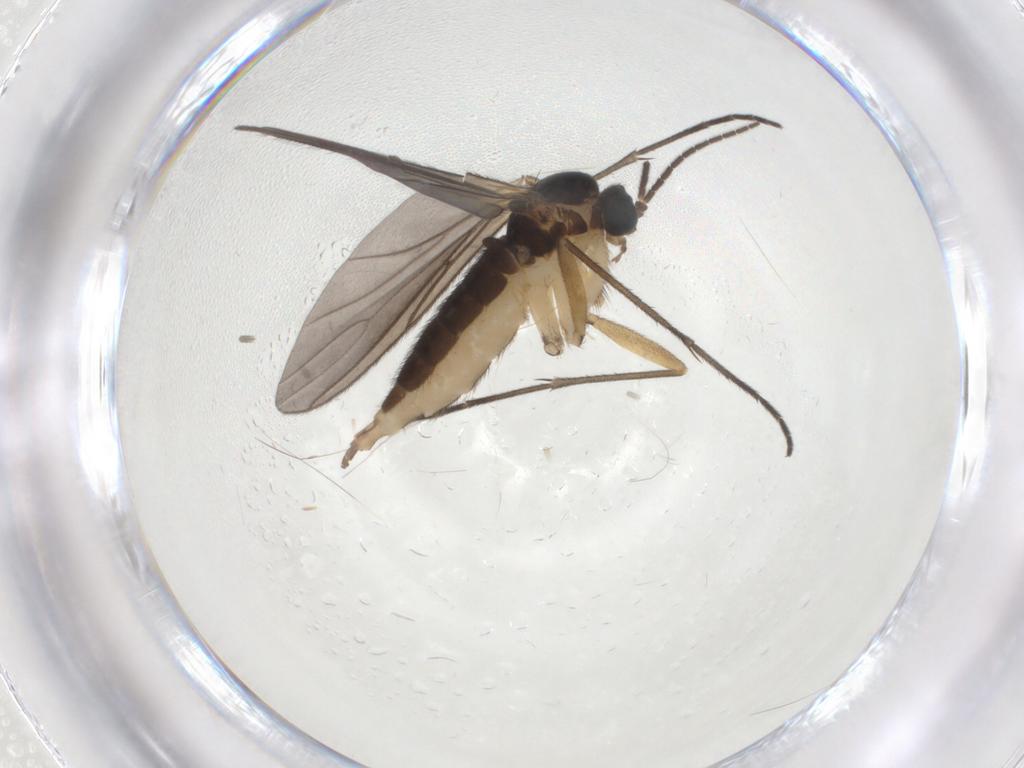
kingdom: Animalia
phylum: Arthropoda
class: Insecta
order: Diptera
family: Sciaridae
